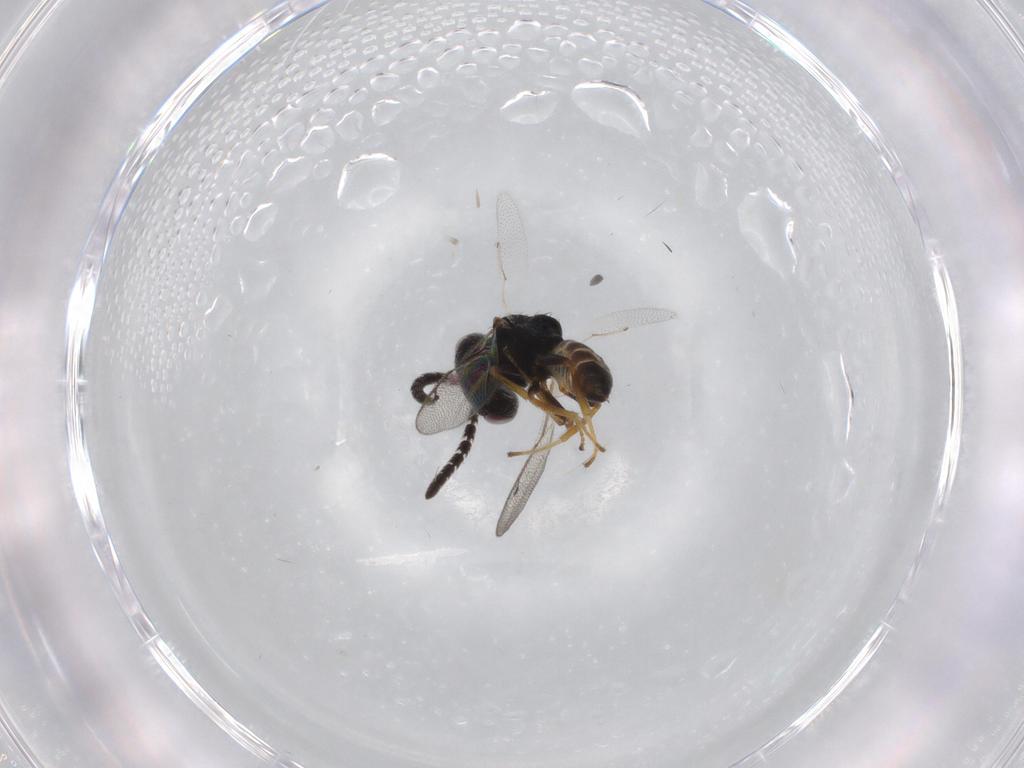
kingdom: Animalia
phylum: Arthropoda
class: Insecta
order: Hymenoptera
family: Agaonidae
